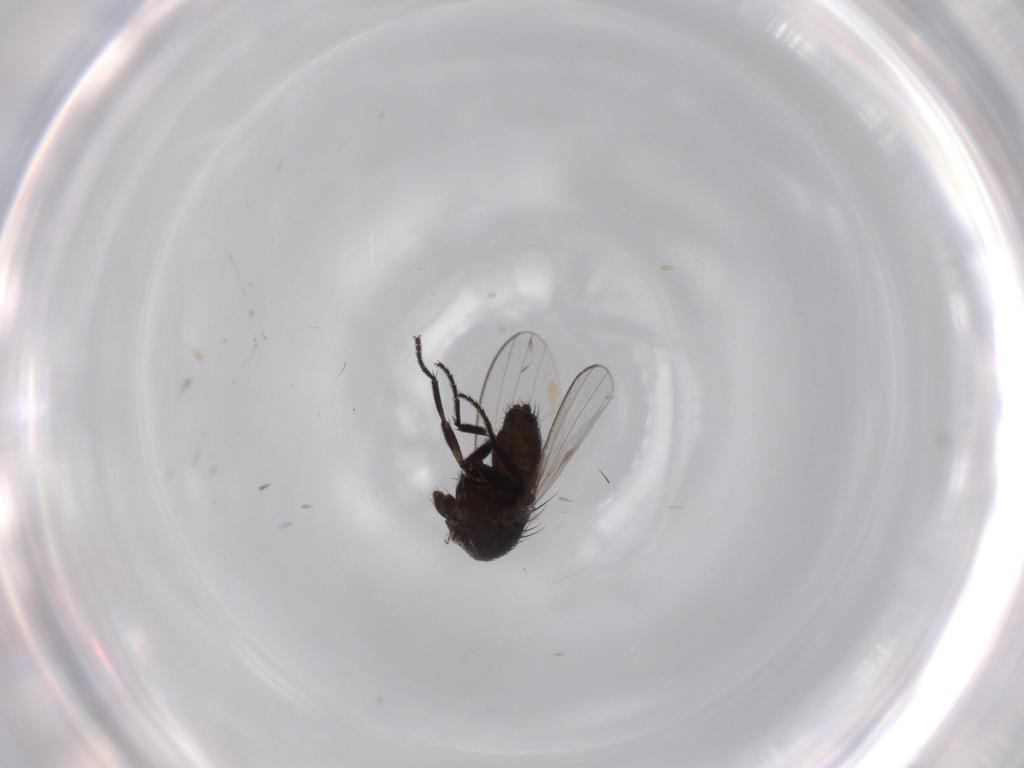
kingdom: Animalia
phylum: Arthropoda
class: Insecta
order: Diptera
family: Milichiidae
